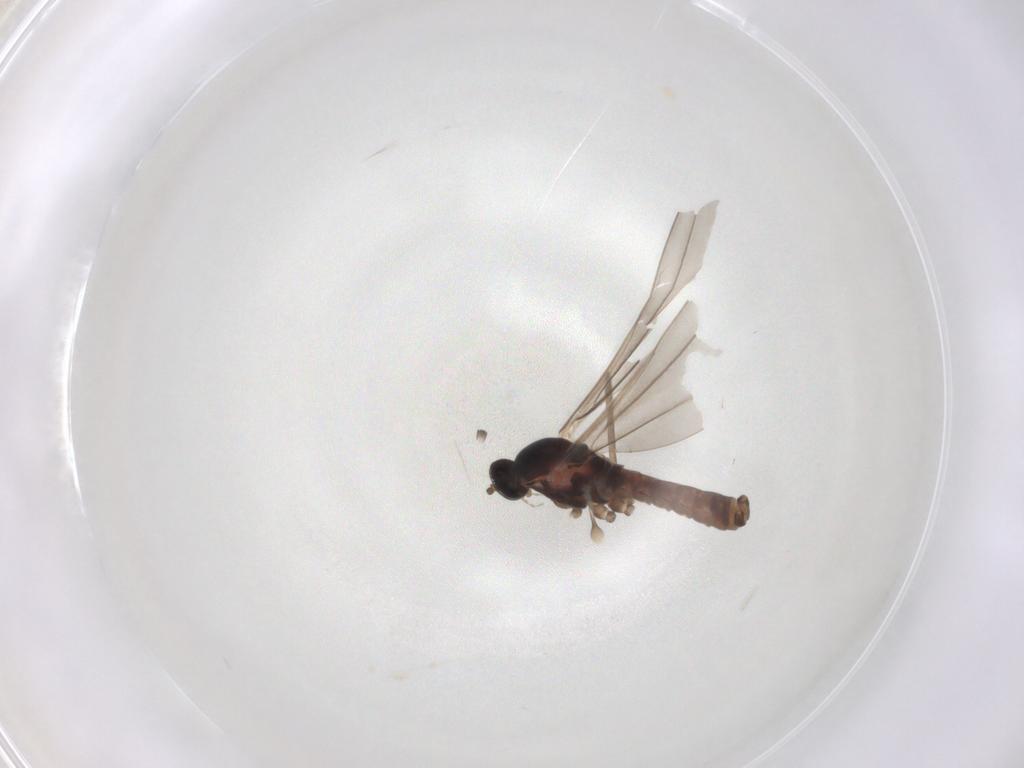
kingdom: Animalia
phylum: Arthropoda
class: Insecta
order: Diptera
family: Cecidomyiidae
